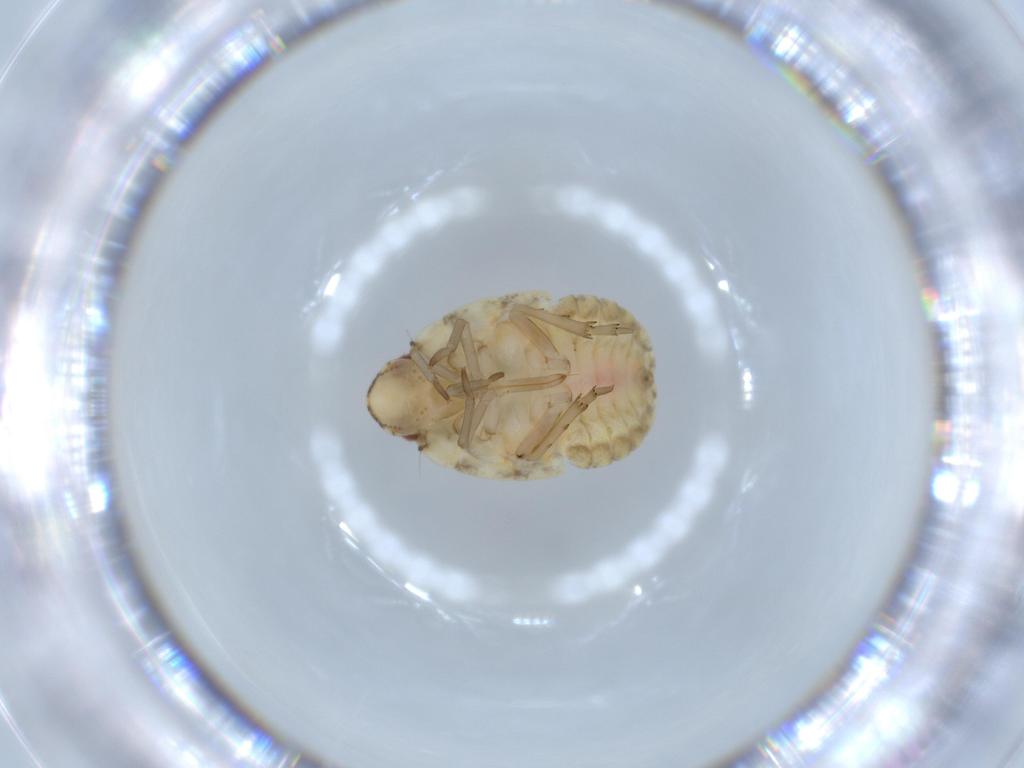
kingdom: Animalia
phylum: Arthropoda
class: Insecta
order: Hemiptera
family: Flatidae
